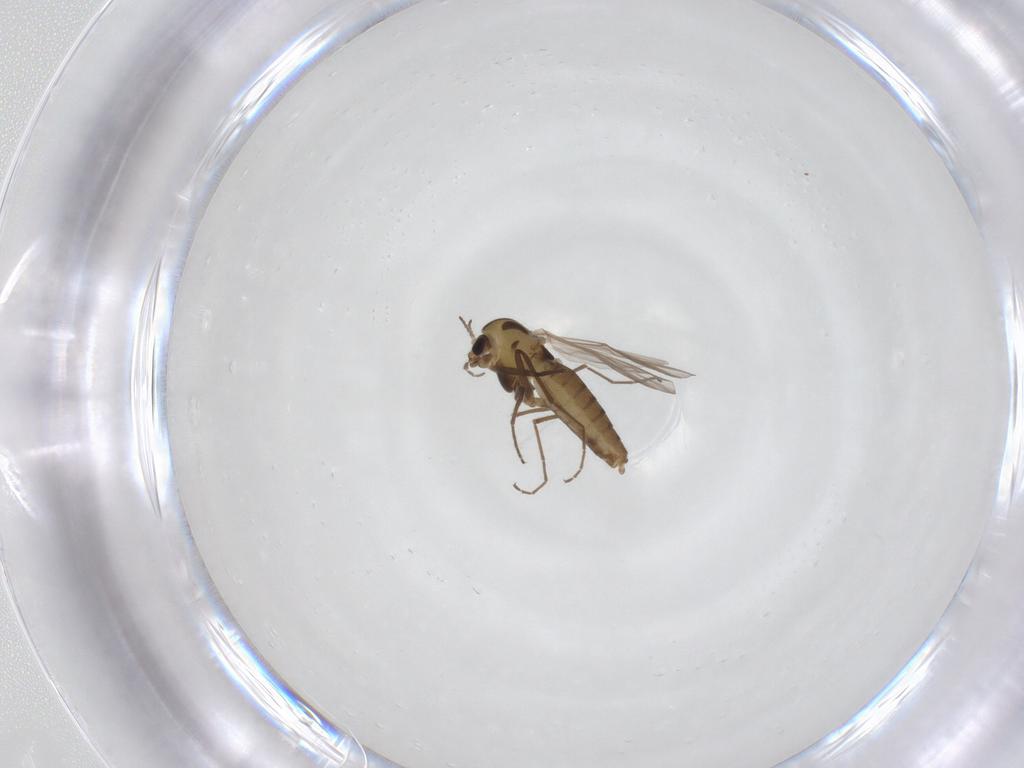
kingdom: Animalia
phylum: Arthropoda
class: Insecta
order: Diptera
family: Chironomidae
